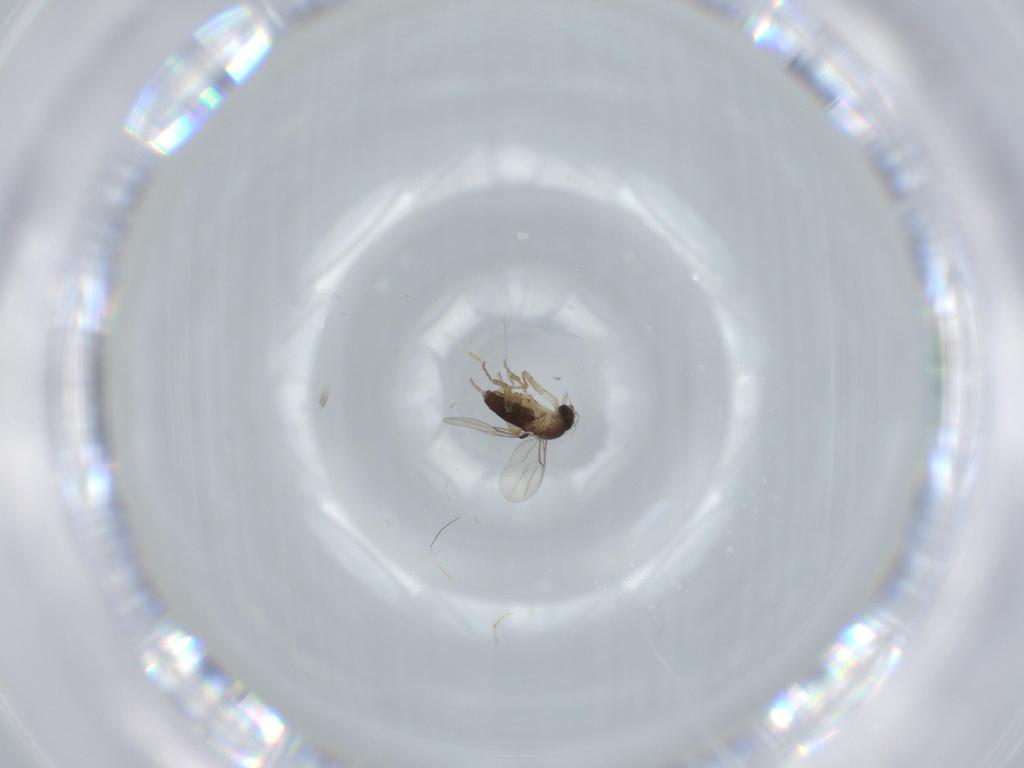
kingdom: Animalia
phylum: Arthropoda
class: Insecta
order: Diptera
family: Phoridae
